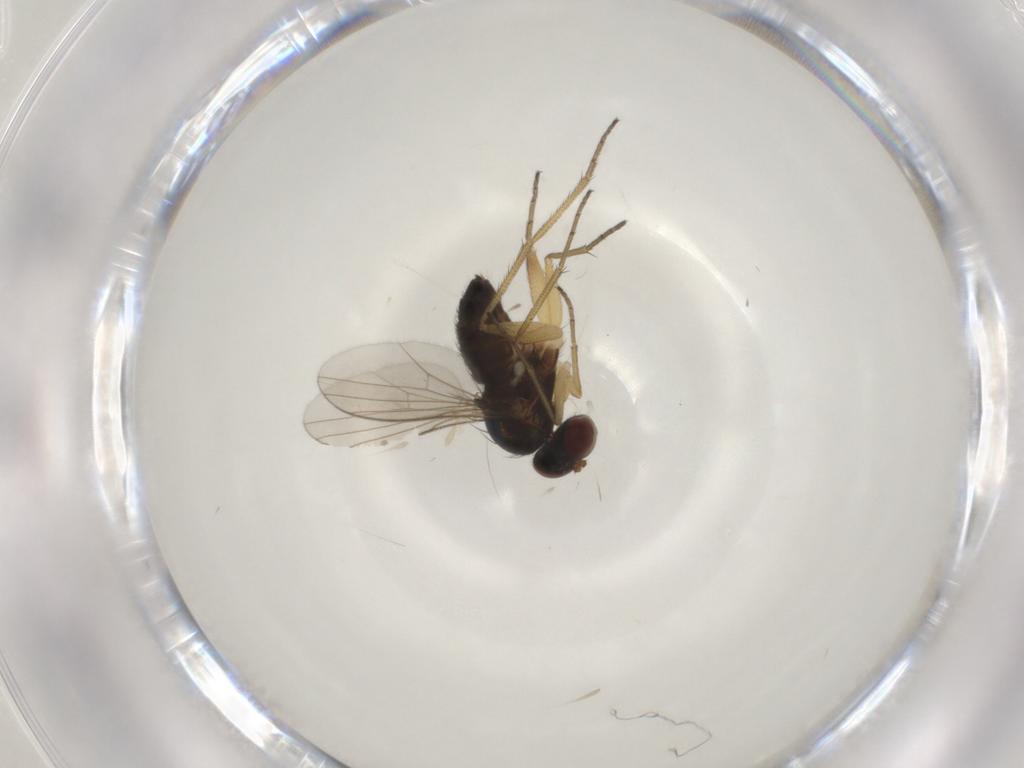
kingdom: Animalia
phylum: Arthropoda
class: Insecta
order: Diptera
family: Dolichopodidae
